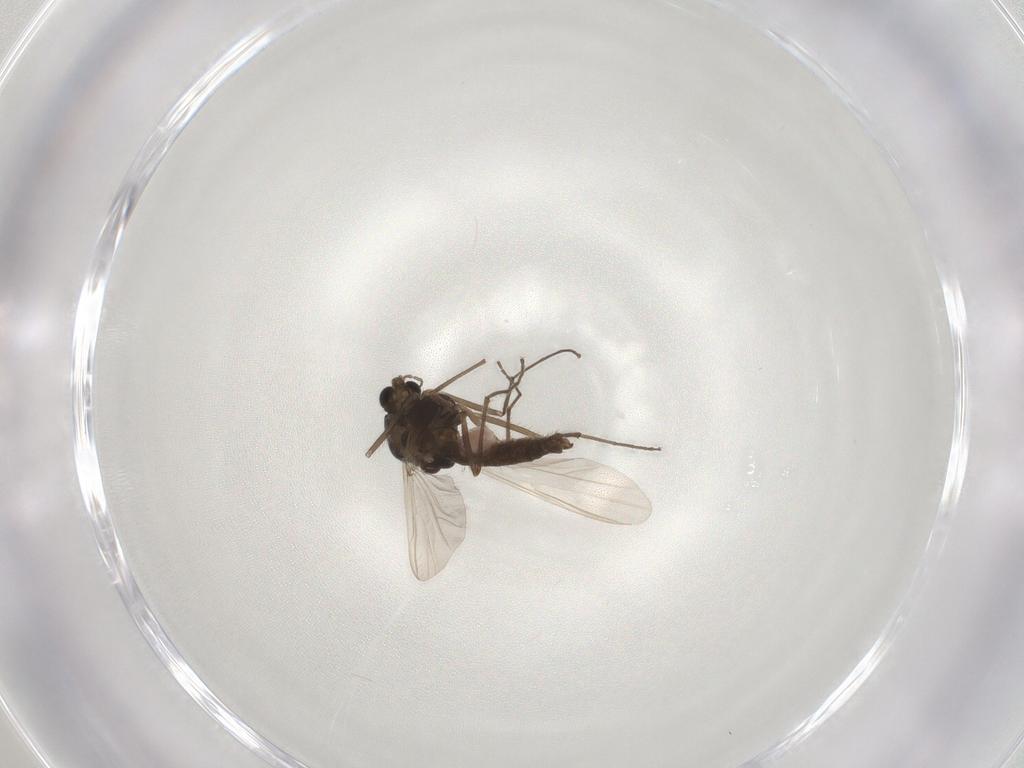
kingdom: Animalia
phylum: Arthropoda
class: Insecta
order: Diptera
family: Chironomidae
